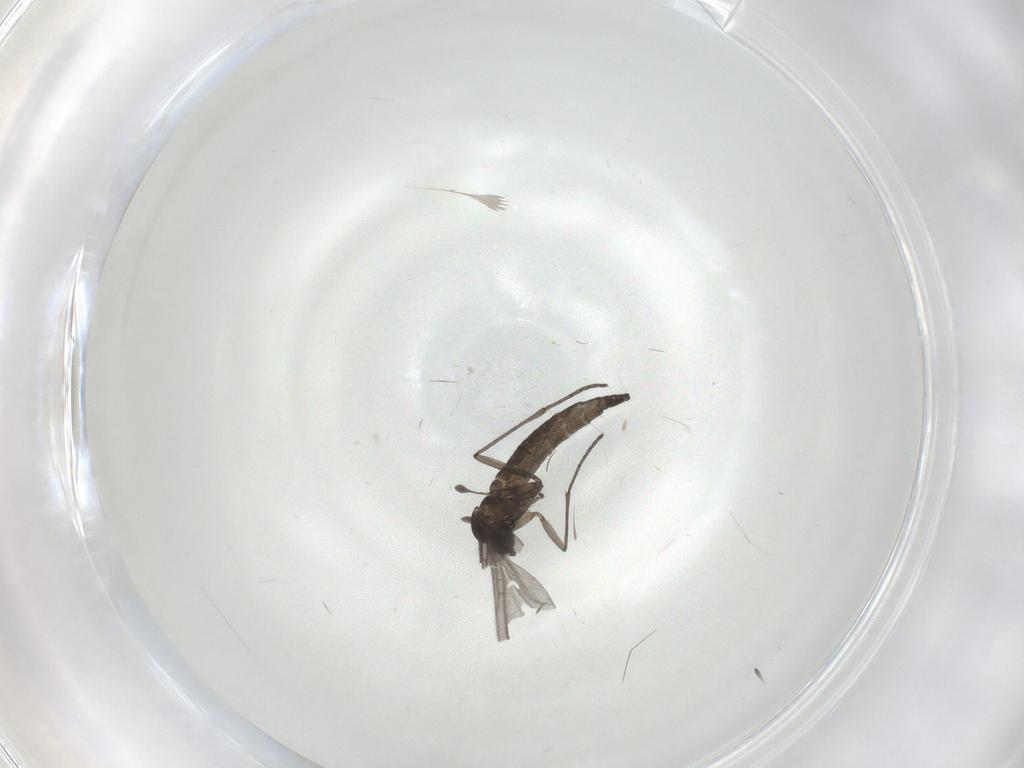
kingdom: Animalia
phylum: Arthropoda
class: Insecta
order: Diptera
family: Sciaridae
